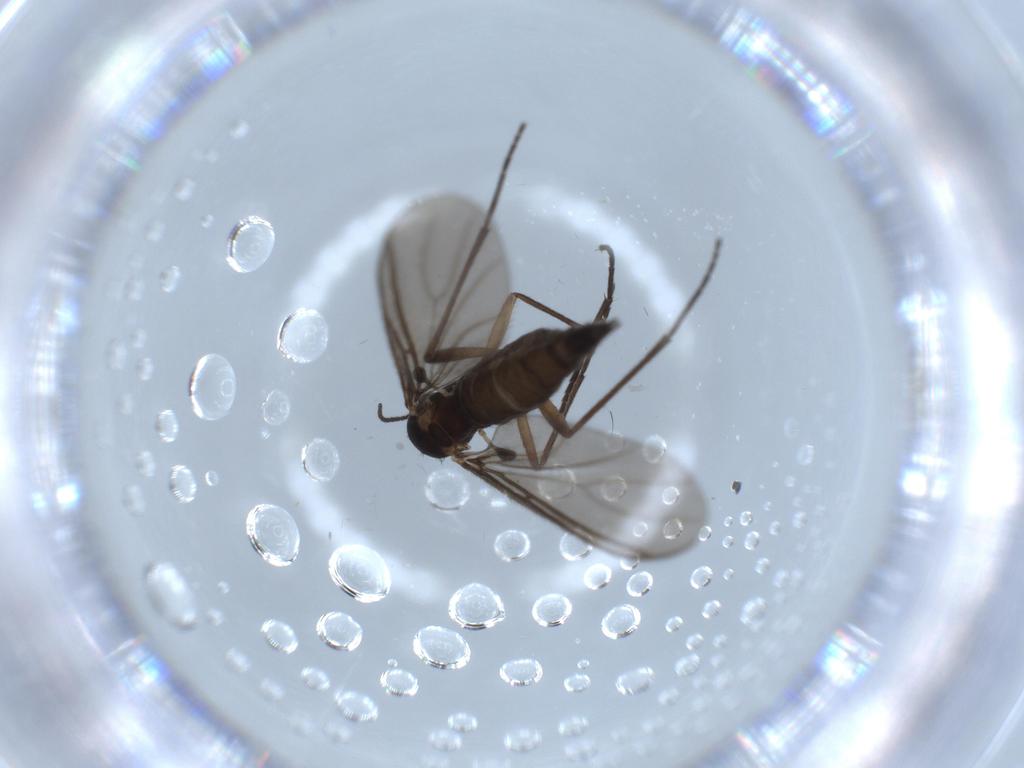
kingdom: Animalia
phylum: Arthropoda
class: Insecta
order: Diptera
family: Sciaridae
